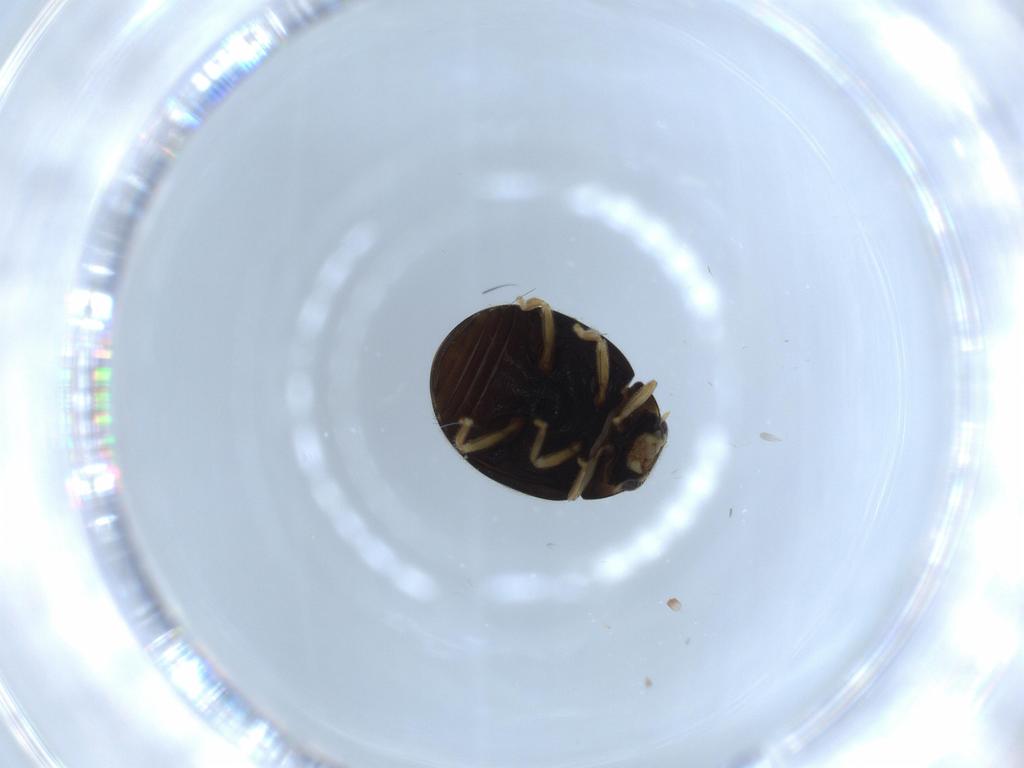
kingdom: Animalia
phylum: Arthropoda
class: Insecta
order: Coleoptera
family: Coccinellidae
